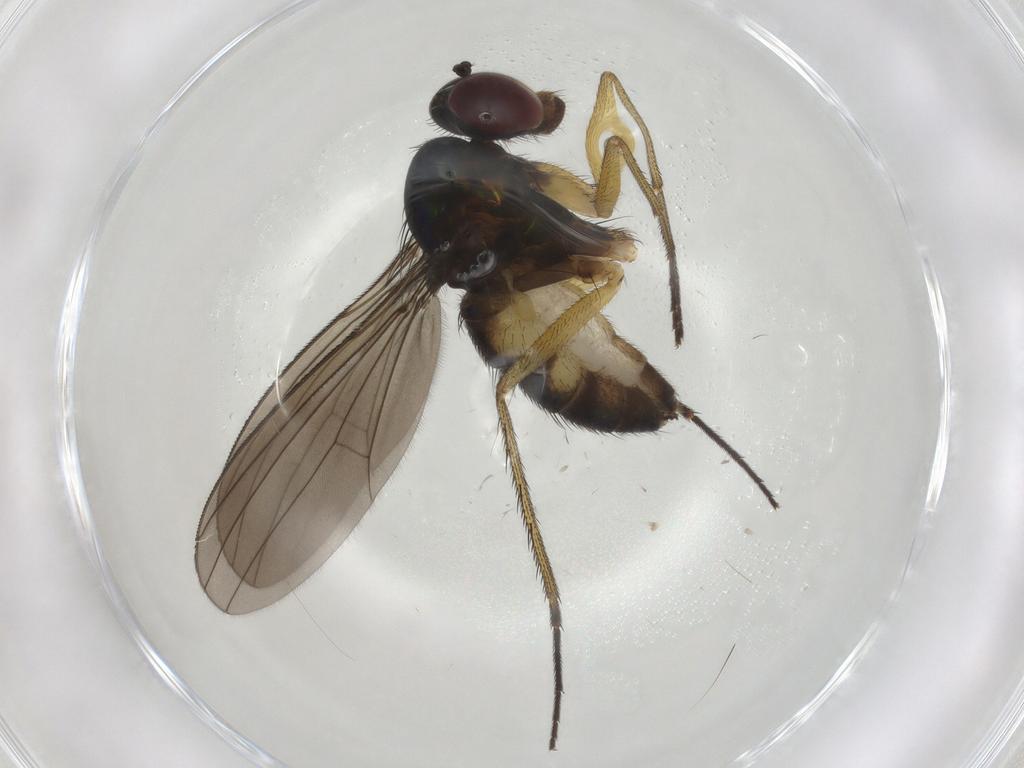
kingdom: Animalia
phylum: Arthropoda
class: Insecta
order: Diptera
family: Dolichopodidae
